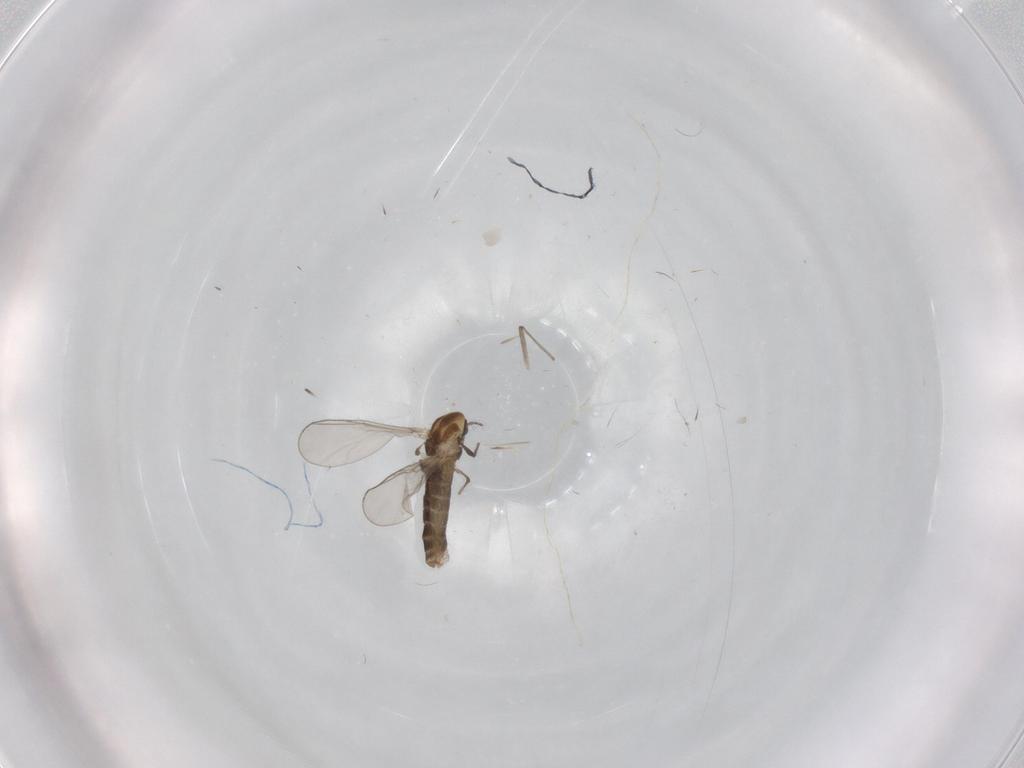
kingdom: Animalia
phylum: Arthropoda
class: Insecta
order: Diptera
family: Chironomidae
